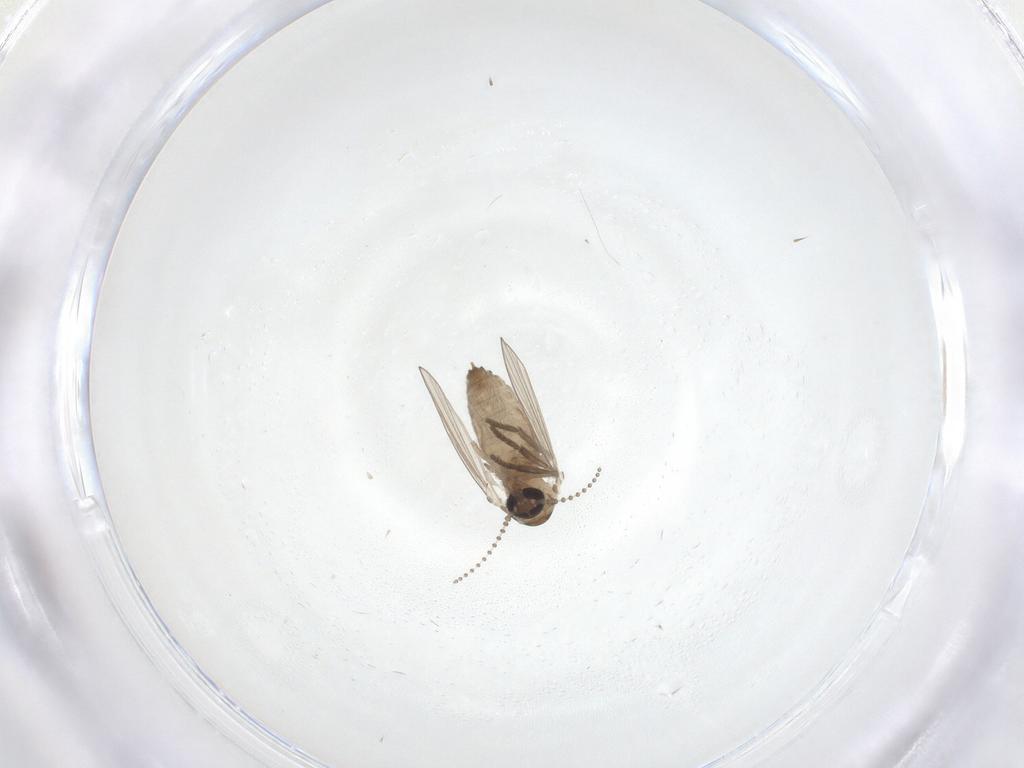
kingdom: Animalia
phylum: Arthropoda
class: Insecta
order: Diptera
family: Psychodidae
